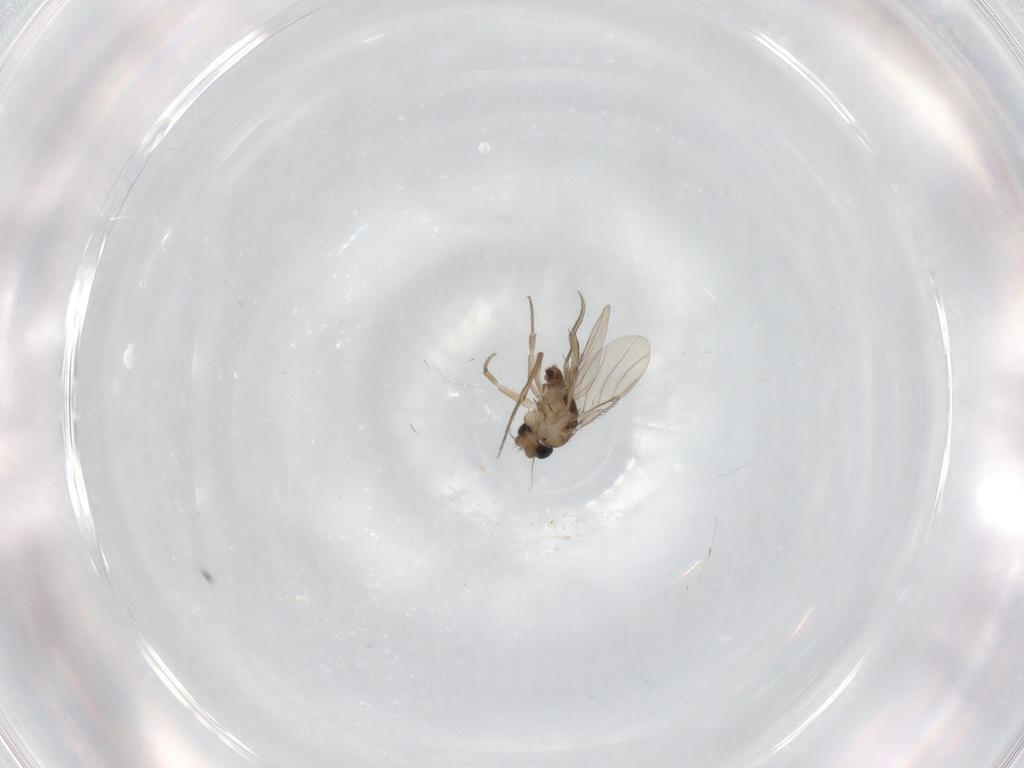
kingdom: Animalia
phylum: Arthropoda
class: Insecta
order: Diptera
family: Phoridae
